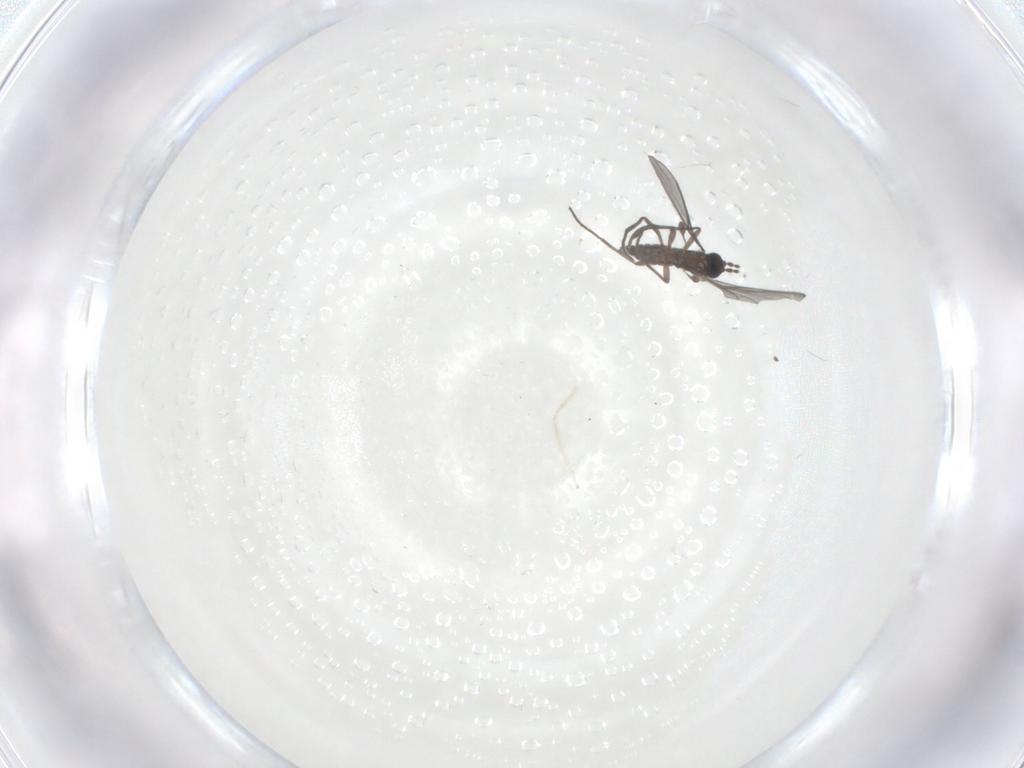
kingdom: Animalia
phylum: Arthropoda
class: Insecta
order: Diptera
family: Sciaridae
